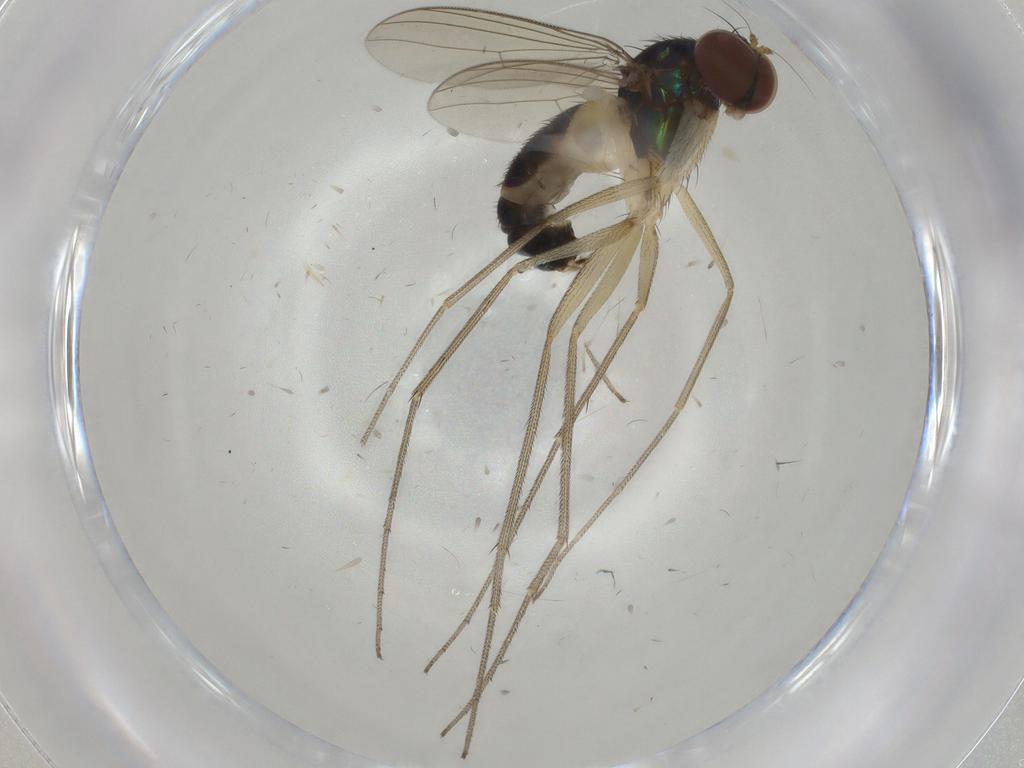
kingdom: Animalia
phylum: Arthropoda
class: Insecta
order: Diptera
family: Dolichopodidae
